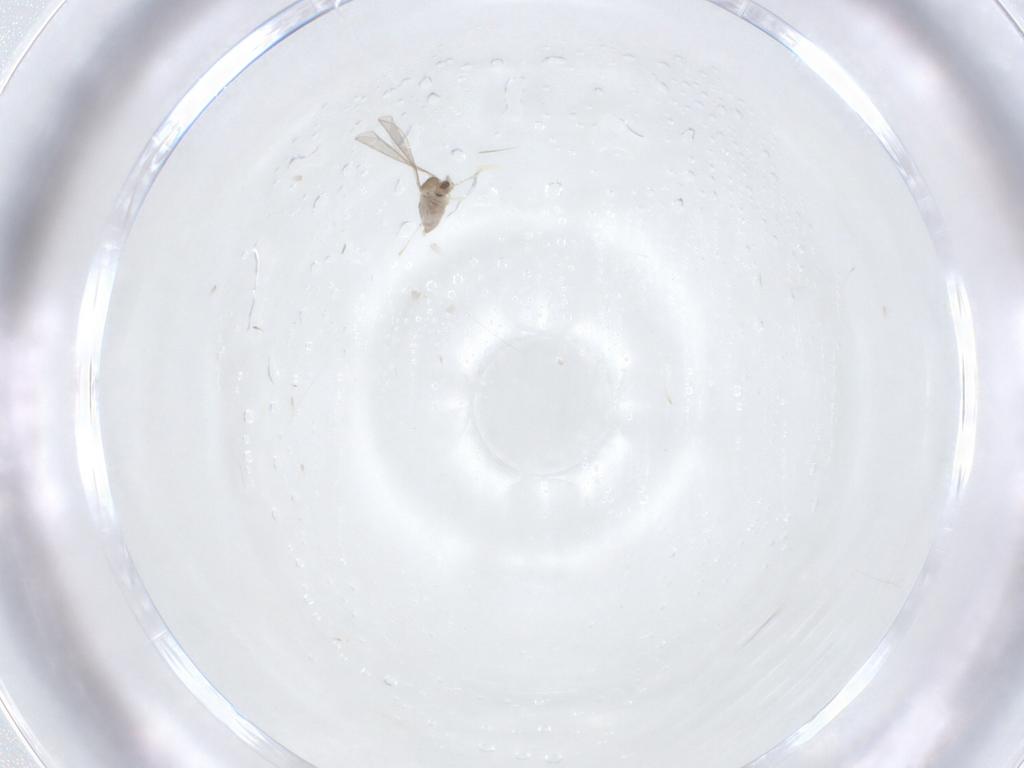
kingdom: Animalia
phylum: Arthropoda
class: Insecta
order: Diptera
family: Cecidomyiidae
